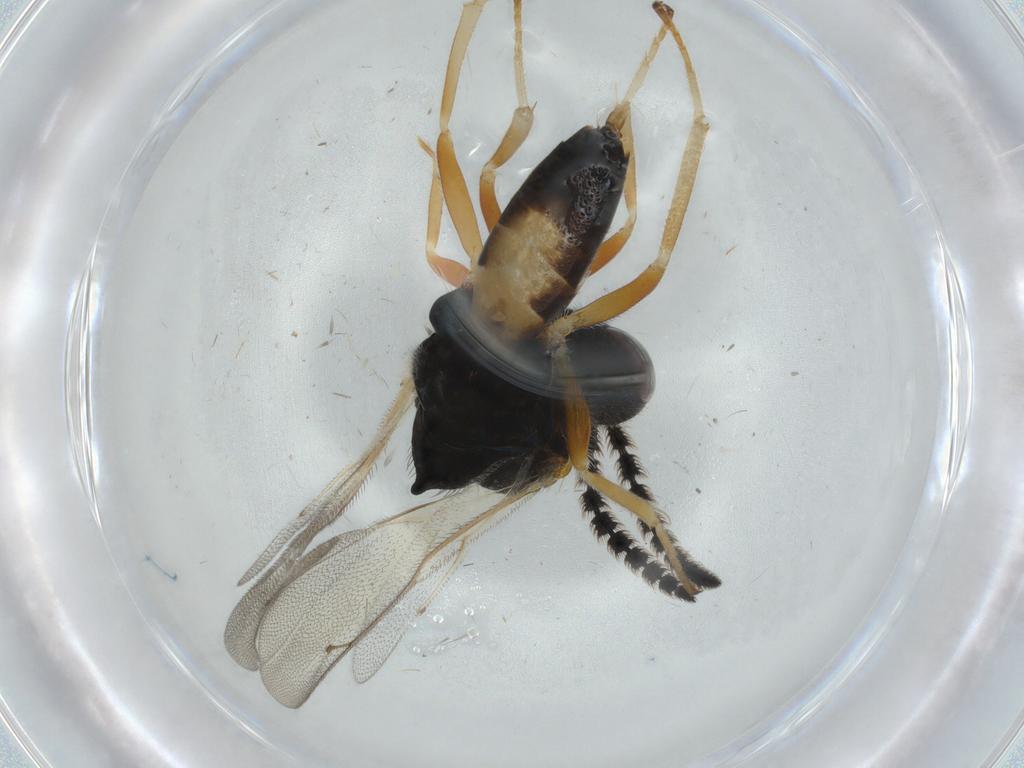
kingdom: Animalia
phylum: Arthropoda
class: Insecta
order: Hymenoptera
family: Pteromalidae
